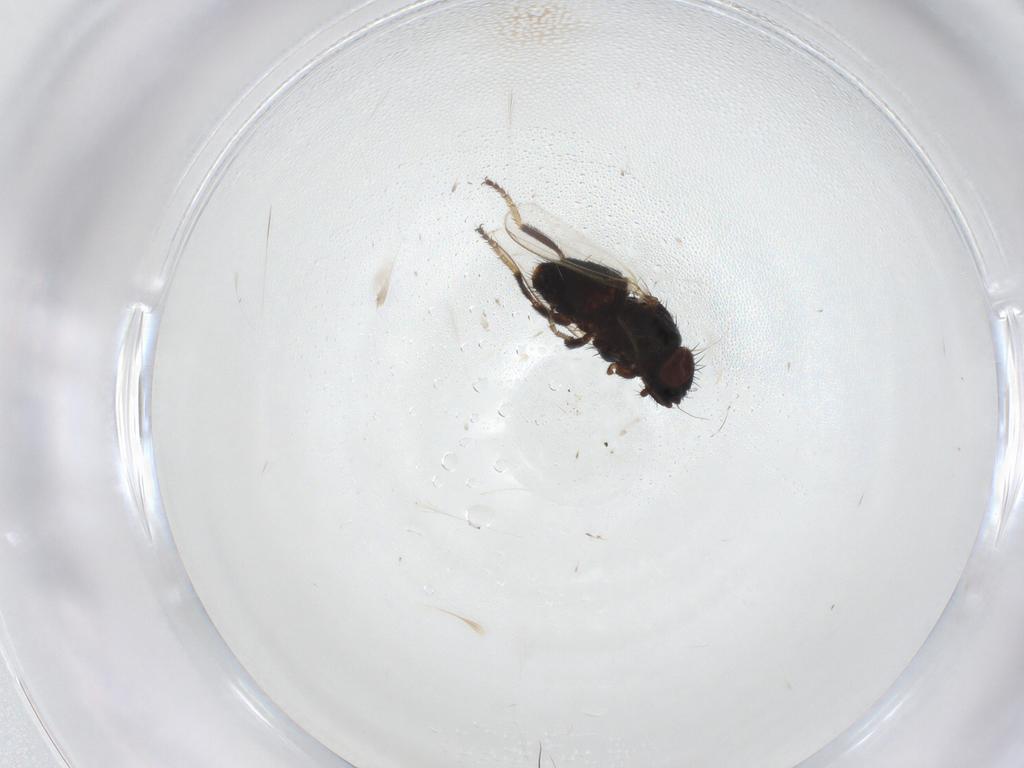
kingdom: Animalia
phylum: Arthropoda
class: Insecta
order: Diptera
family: Milichiidae
